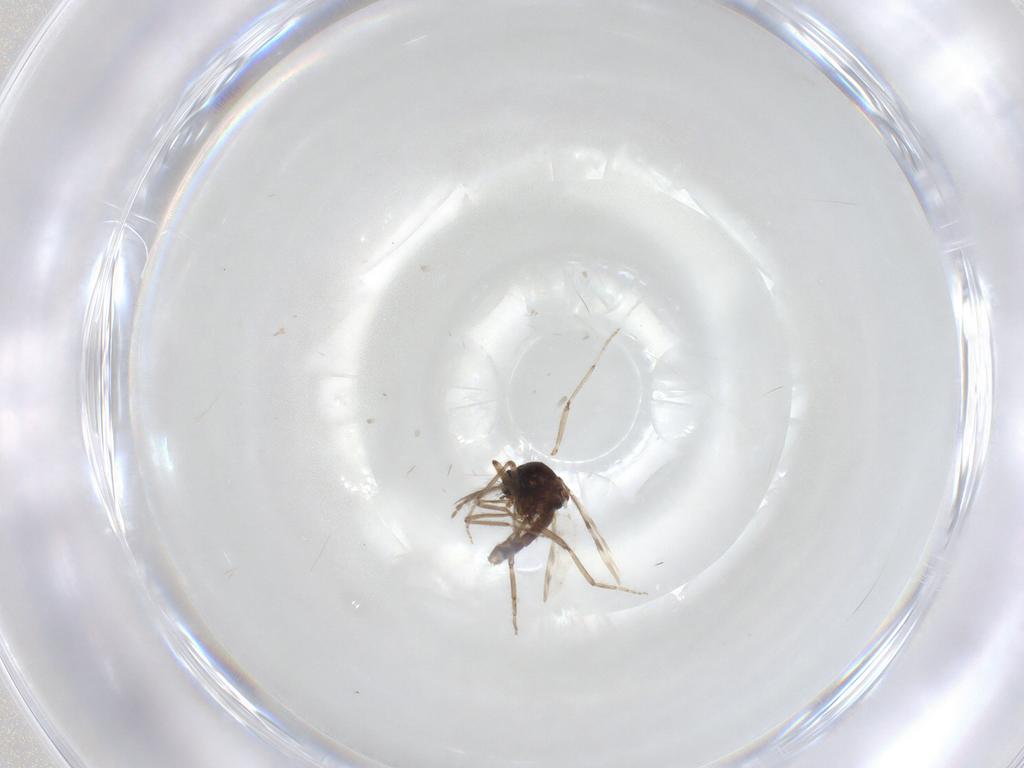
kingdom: Animalia
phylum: Arthropoda
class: Insecta
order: Diptera
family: Ceratopogonidae
